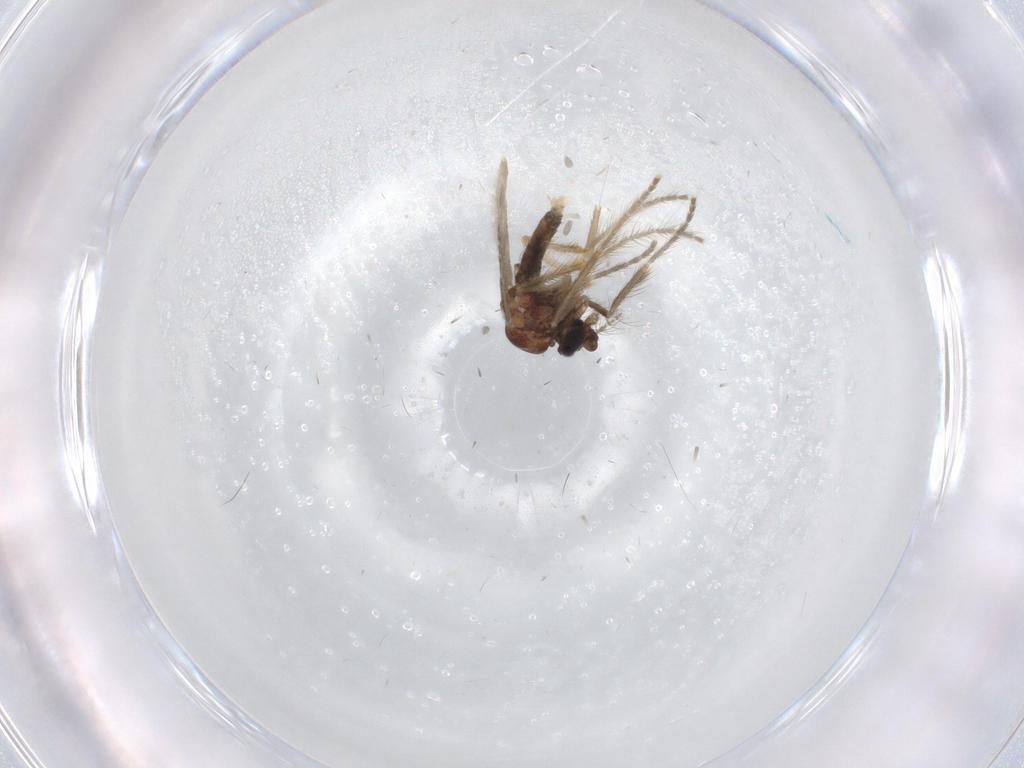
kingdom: Animalia
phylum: Arthropoda
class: Insecta
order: Diptera
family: Corethrellidae
